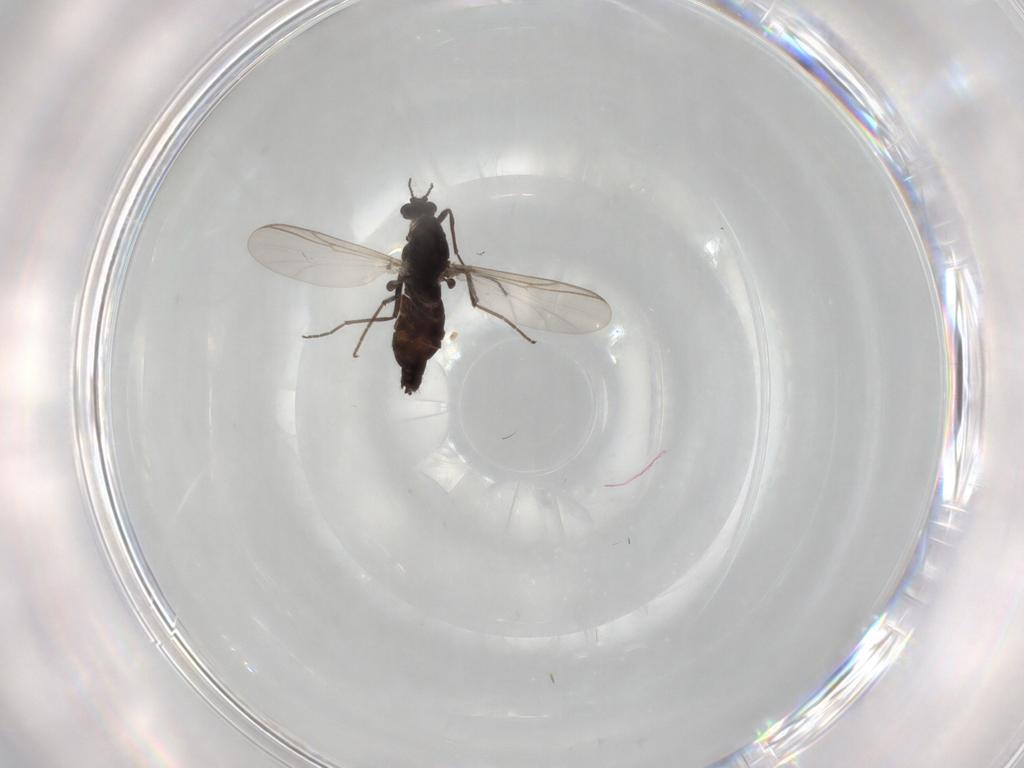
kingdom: Animalia
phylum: Arthropoda
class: Insecta
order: Diptera
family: Chironomidae
